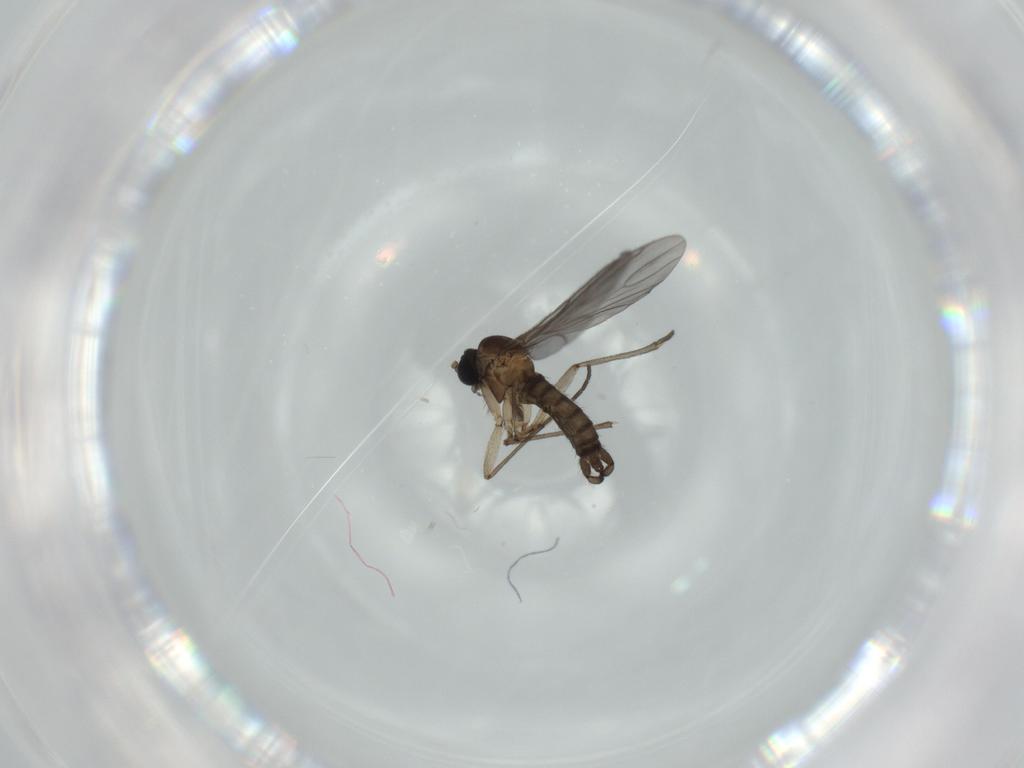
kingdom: Animalia
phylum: Arthropoda
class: Insecta
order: Diptera
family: Sciaridae
